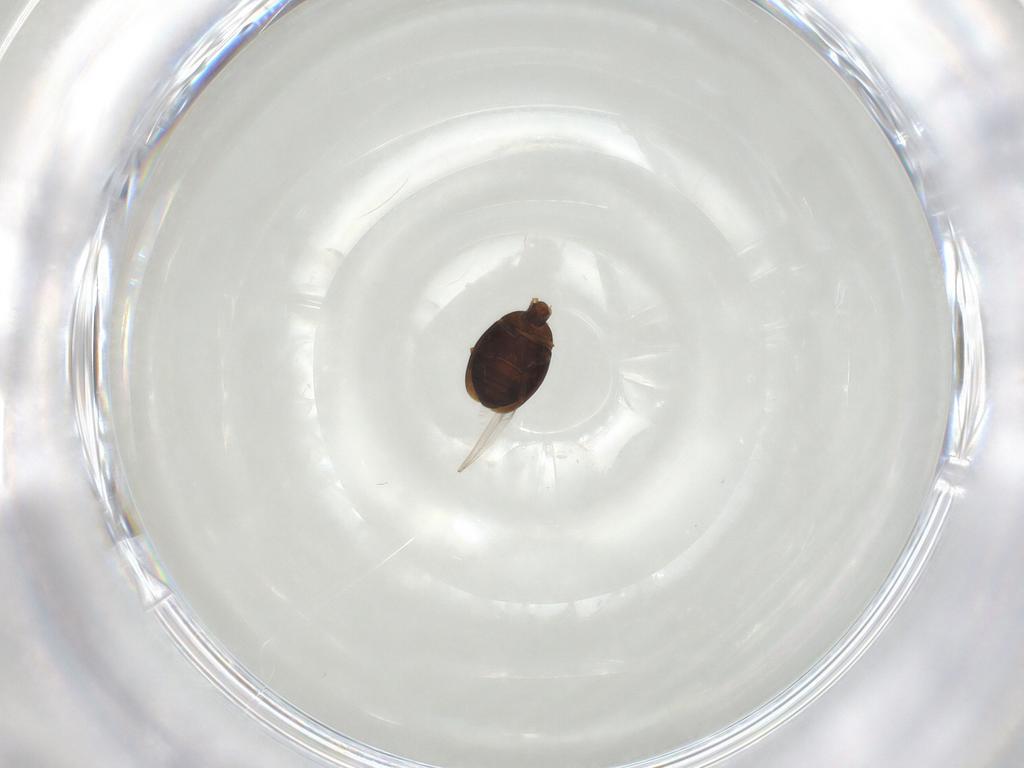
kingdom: Animalia
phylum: Arthropoda
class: Insecta
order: Coleoptera
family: Corylophidae
